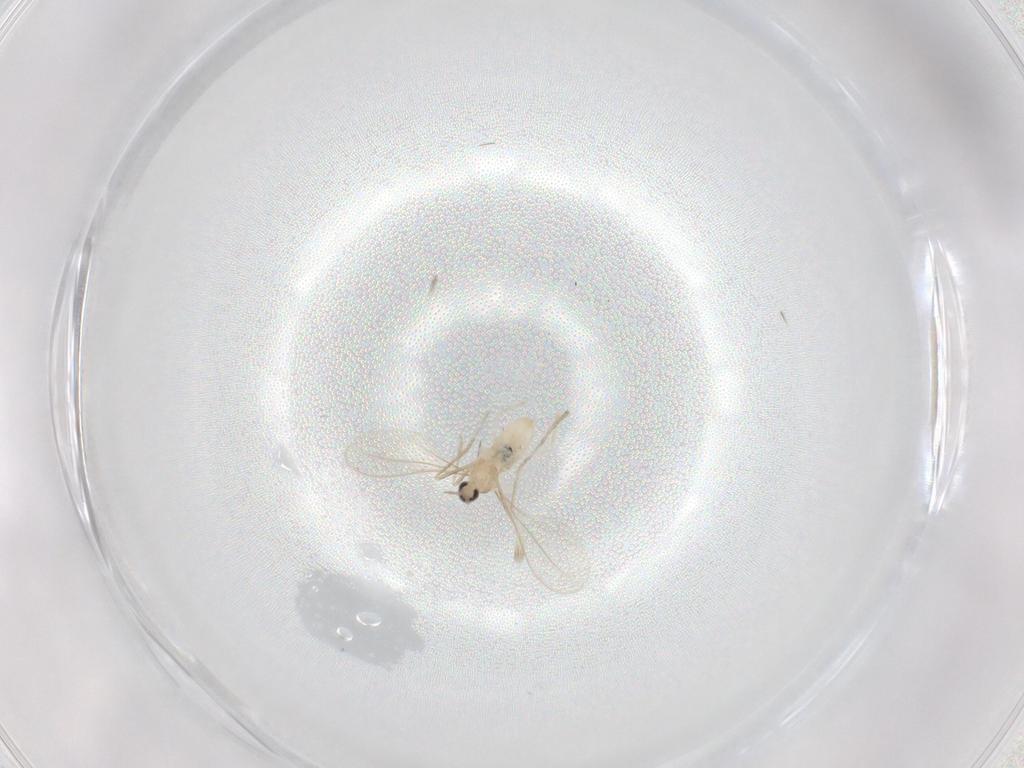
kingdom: Animalia
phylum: Arthropoda
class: Insecta
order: Diptera
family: Cecidomyiidae
